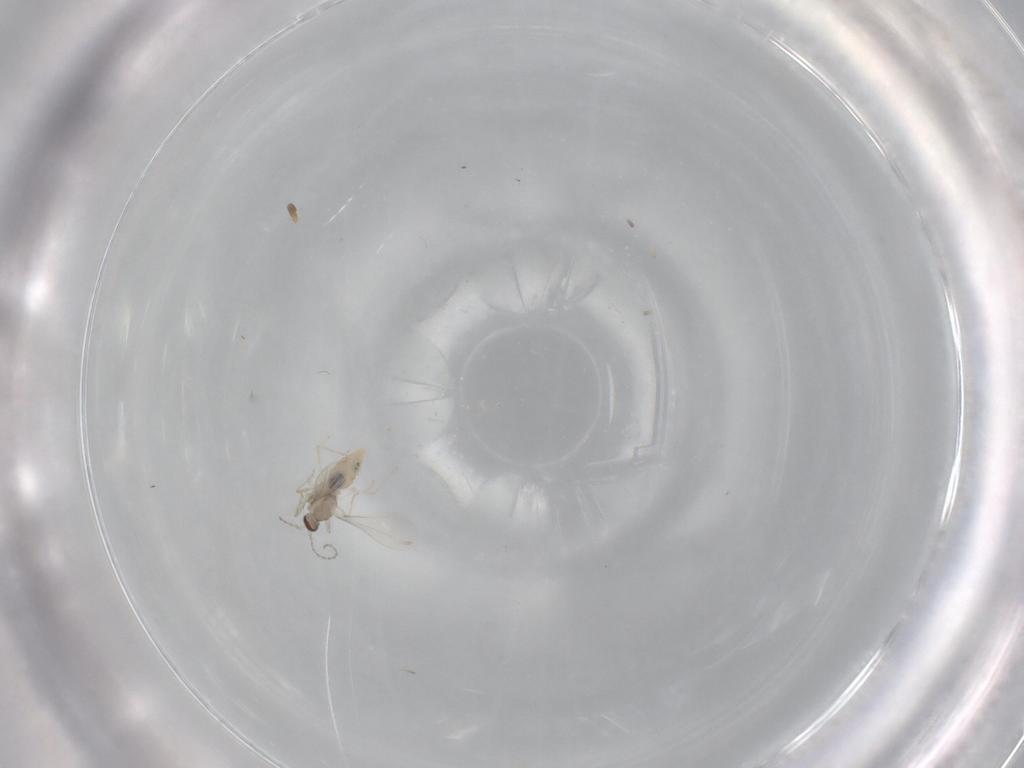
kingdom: Animalia
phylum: Arthropoda
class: Insecta
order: Diptera
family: Cecidomyiidae
